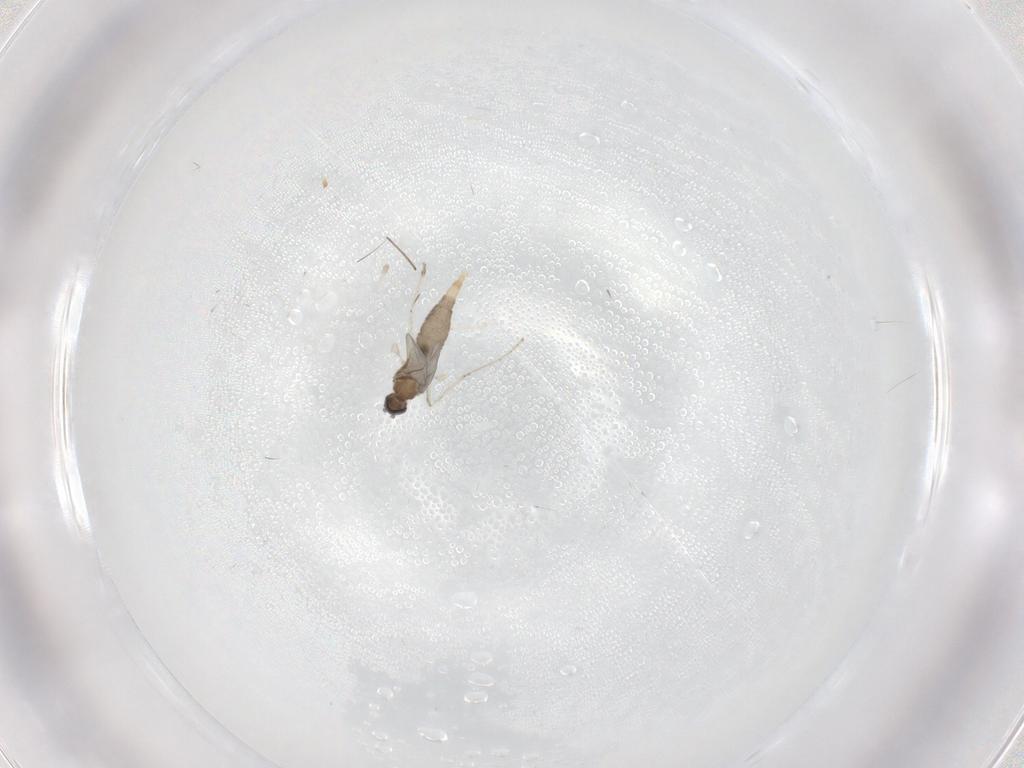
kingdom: Animalia
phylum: Arthropoda
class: Insecta
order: Diptera
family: Cecidomyiidae
